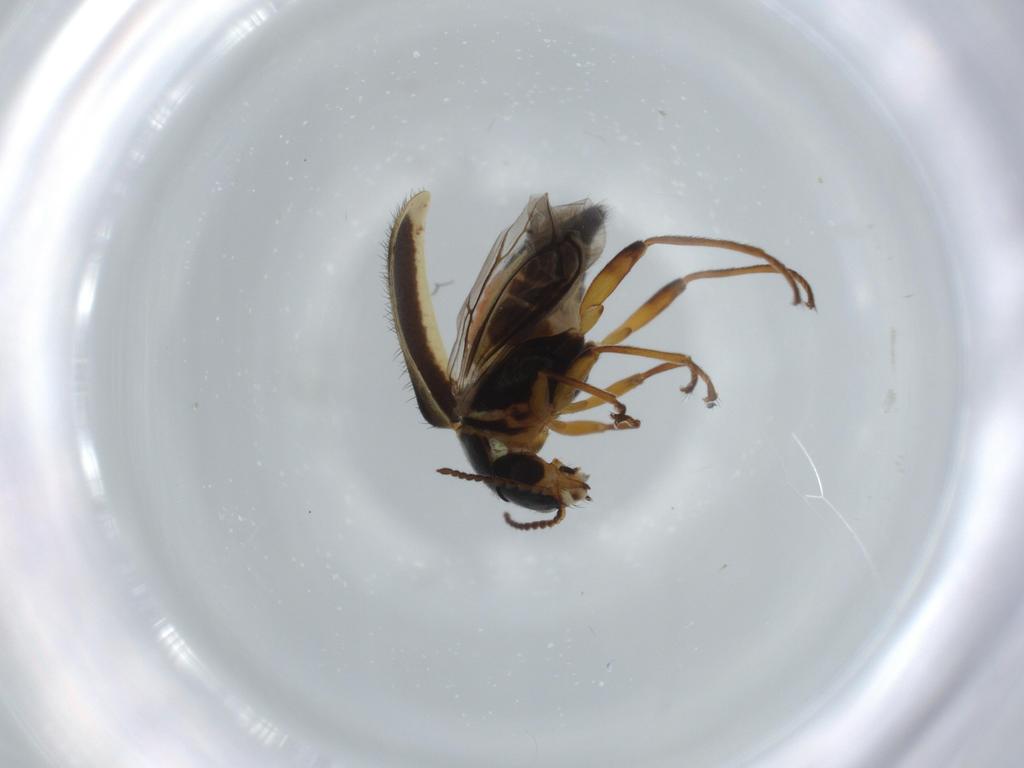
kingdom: Animalia
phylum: Arthropoda
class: Insecta
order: Coleoptera
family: Melyridae
